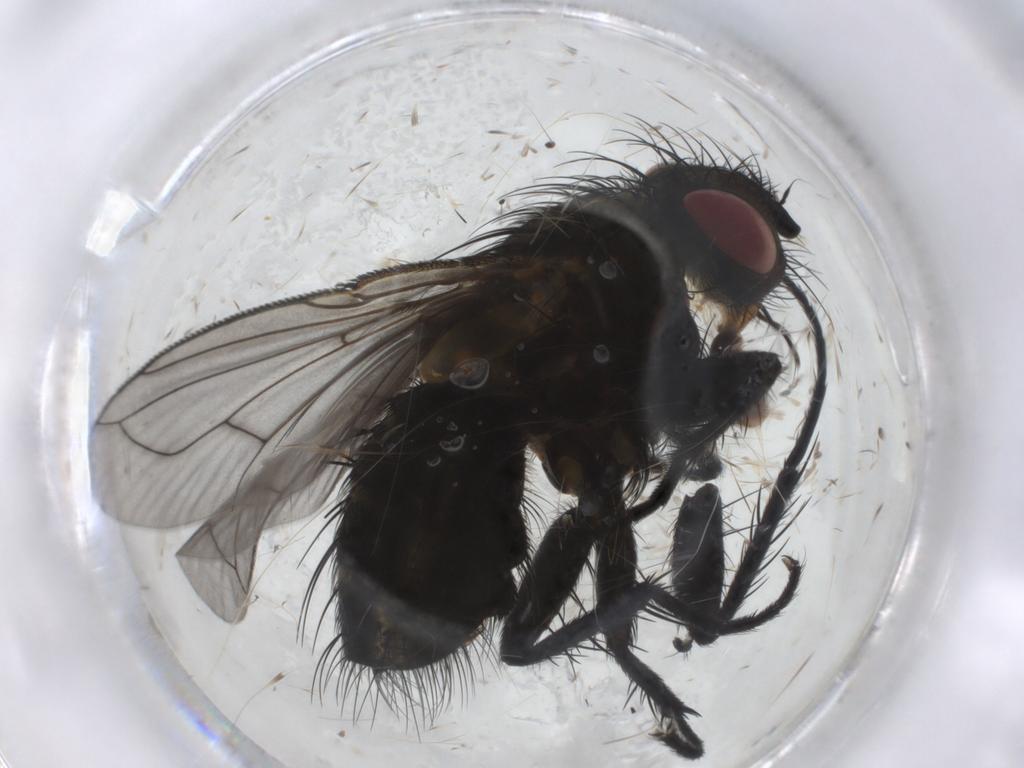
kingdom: Animalia
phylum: Arthropoda
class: Insecta
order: Diptera
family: Tachinidae
